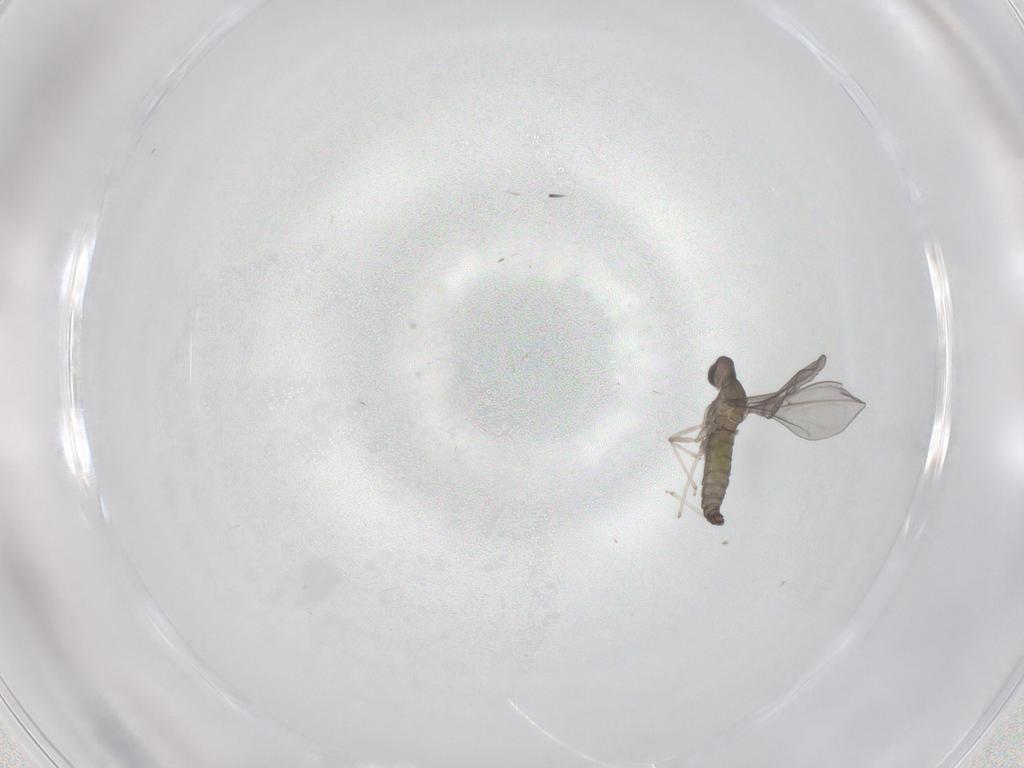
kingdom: Animalia
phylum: Arthropoda
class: Insecta
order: Diptera
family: Cecidomyiidae
